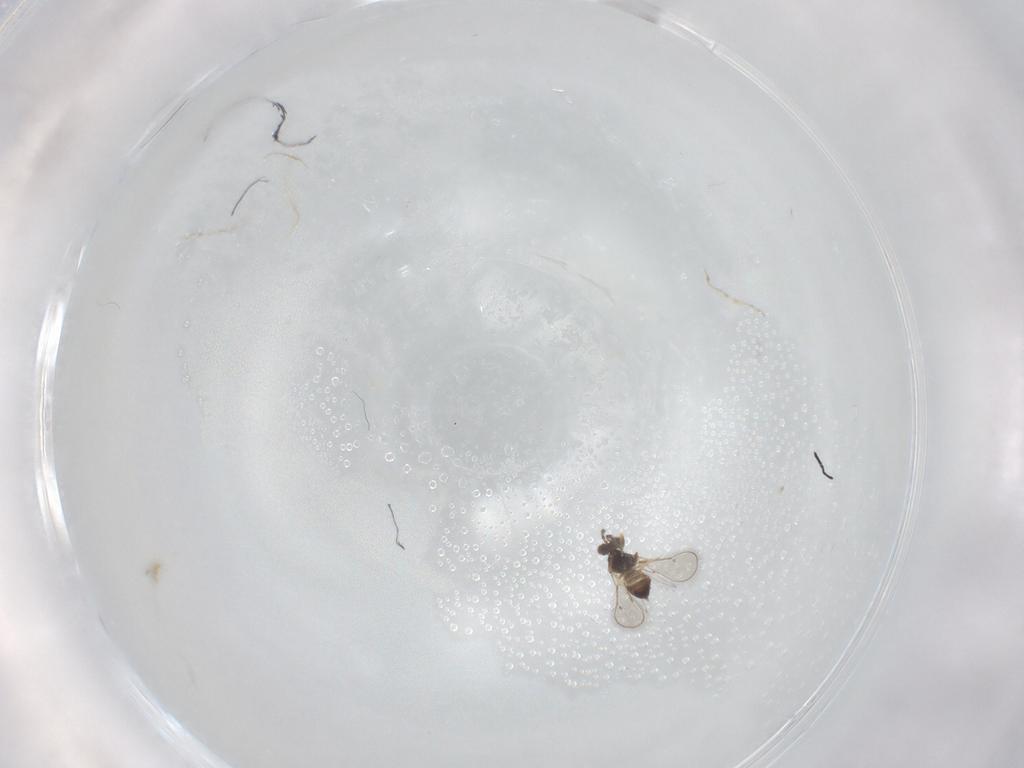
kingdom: Animalia
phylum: Arthropoda
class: Insecta
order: Hymenoptera
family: Eulophidae
